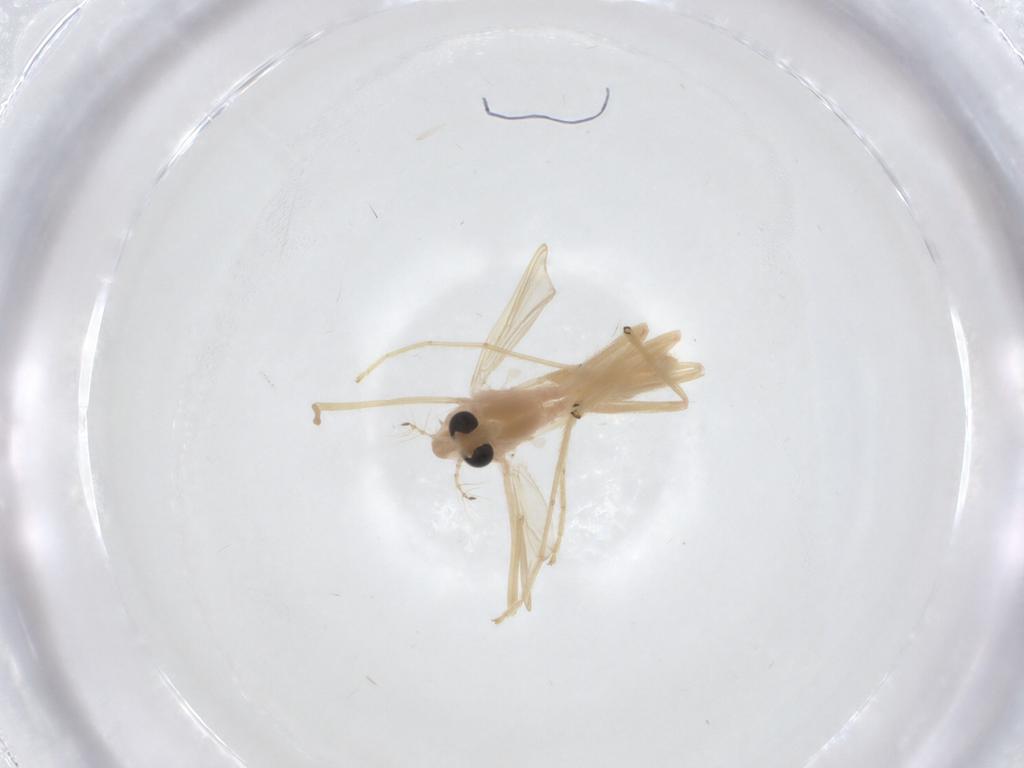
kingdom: Animalia
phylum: Arthropoda
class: Insecta
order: Diptera
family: Chironomidae
